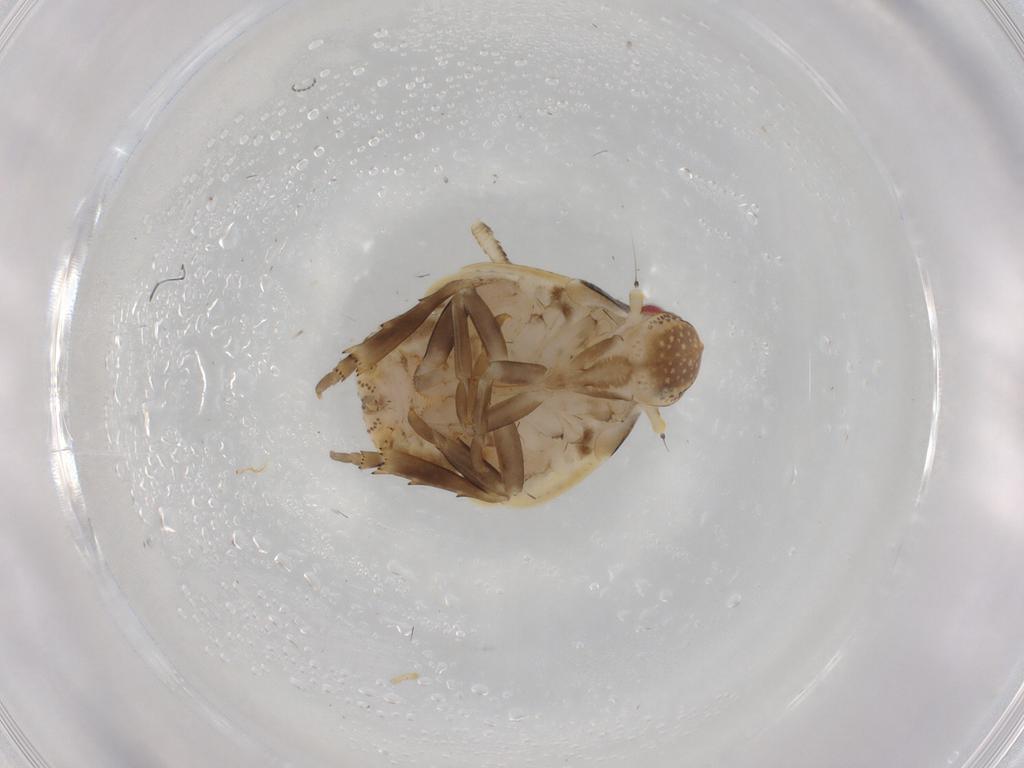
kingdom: Animalia
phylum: Arthropoda
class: Insecta
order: Hemiptera
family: Flatidae
